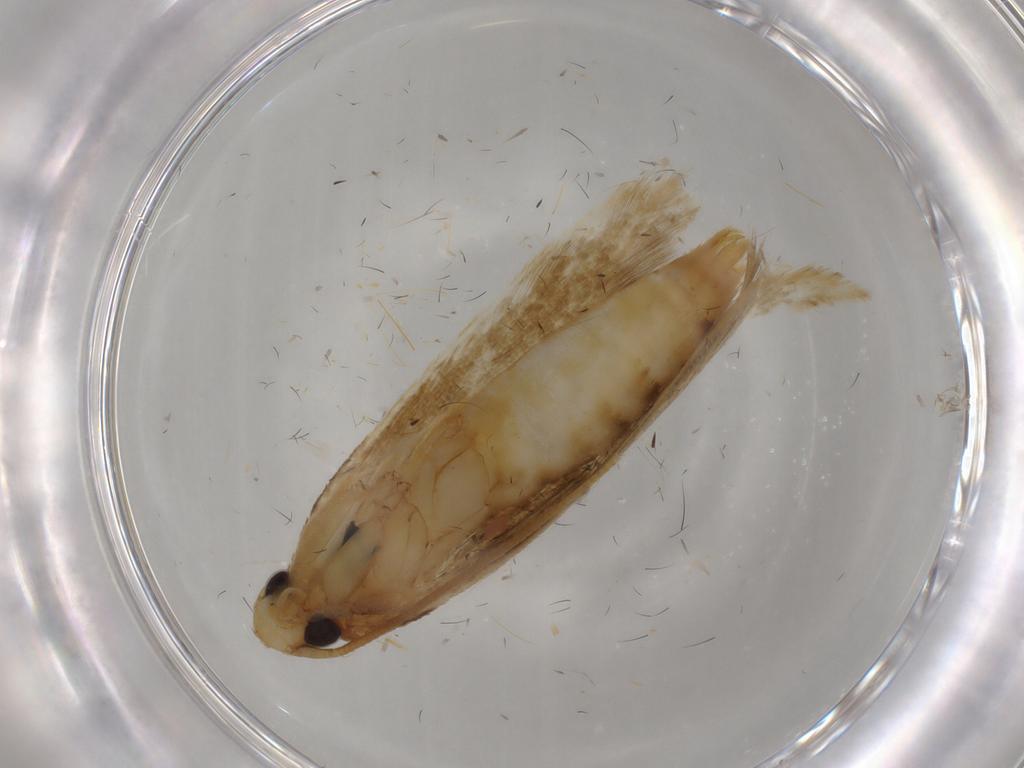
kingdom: Animalia
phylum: Arthropoda
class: Insecta
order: Lepidoptera
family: Tineidae
